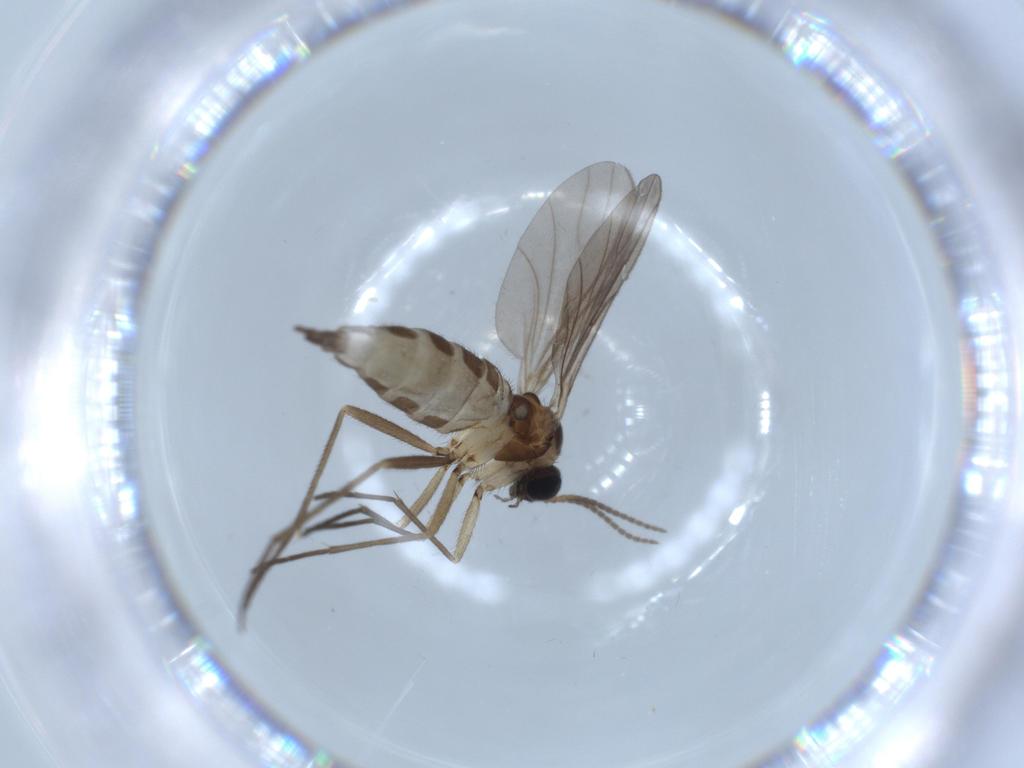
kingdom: Animalia
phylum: Arthropoda
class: Insecta
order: Diptera
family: Sciaridae
